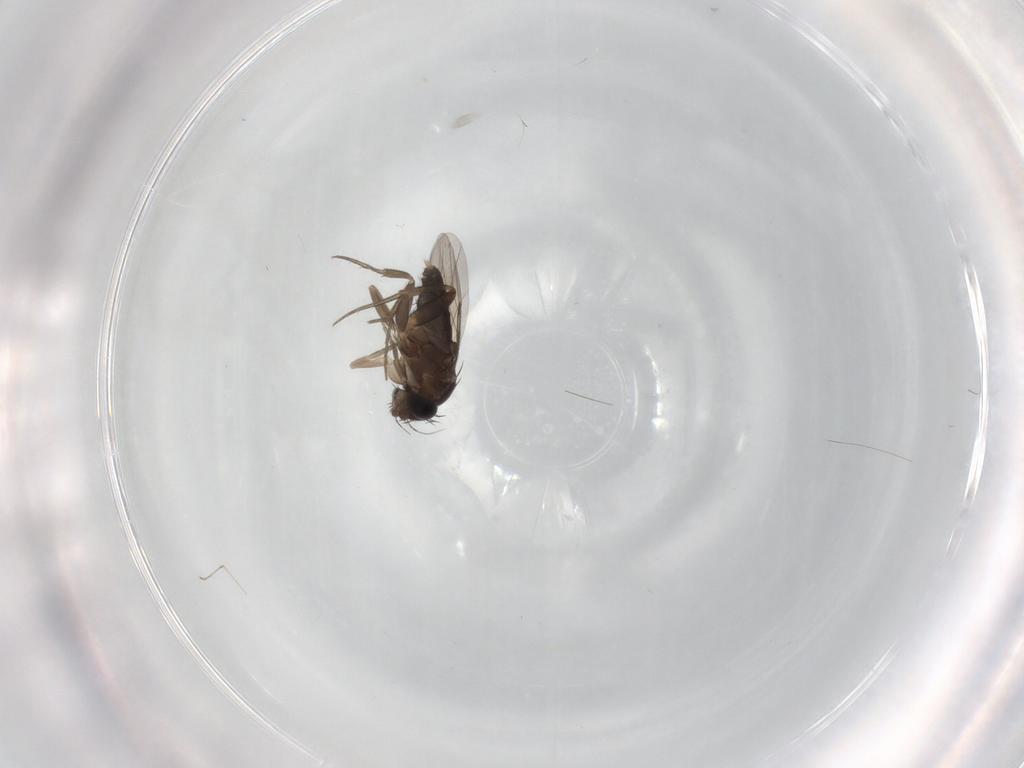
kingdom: Animalia
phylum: Arthropoda
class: Insecta
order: Diptera
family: Phoridae
